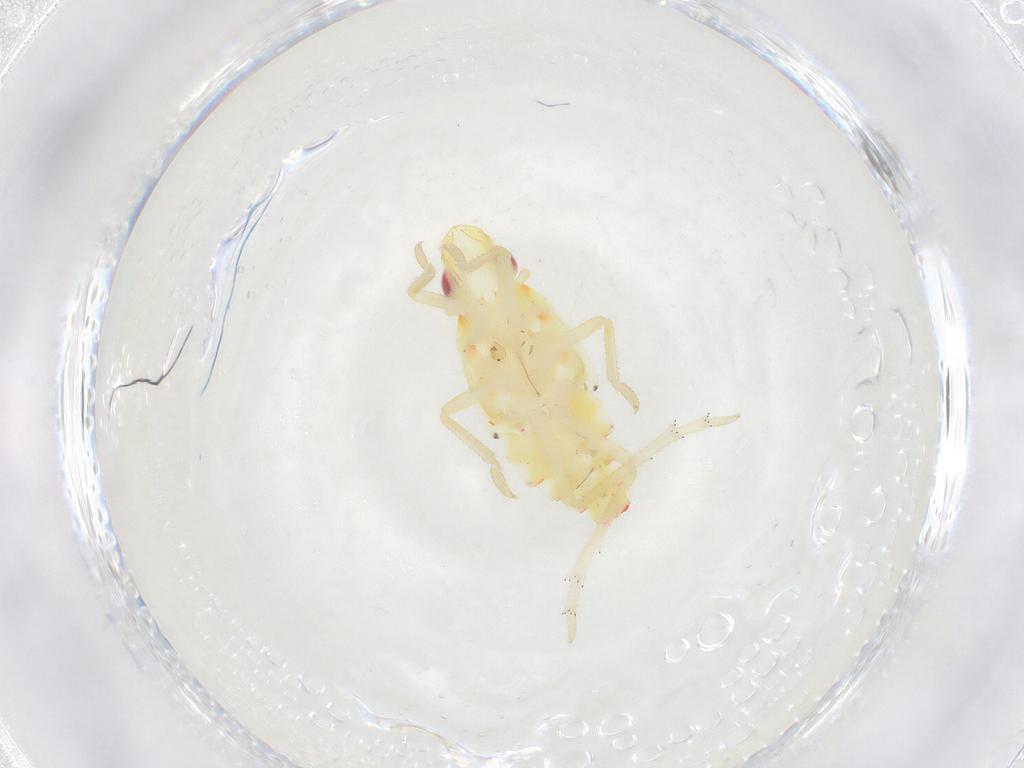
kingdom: Animalia
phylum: Arthropoda
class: Insecta
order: Hemiptera
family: Tropiduchidae
